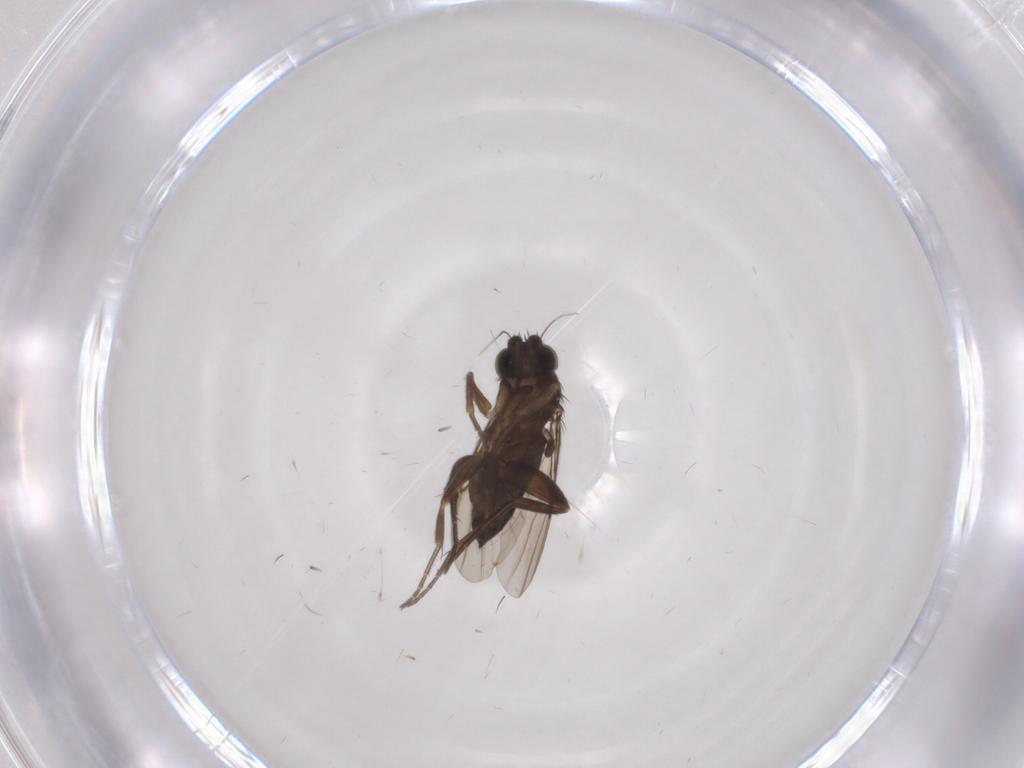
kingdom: Animalia
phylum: Arthropoda
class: Insecta
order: Diptera
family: Phoridae
